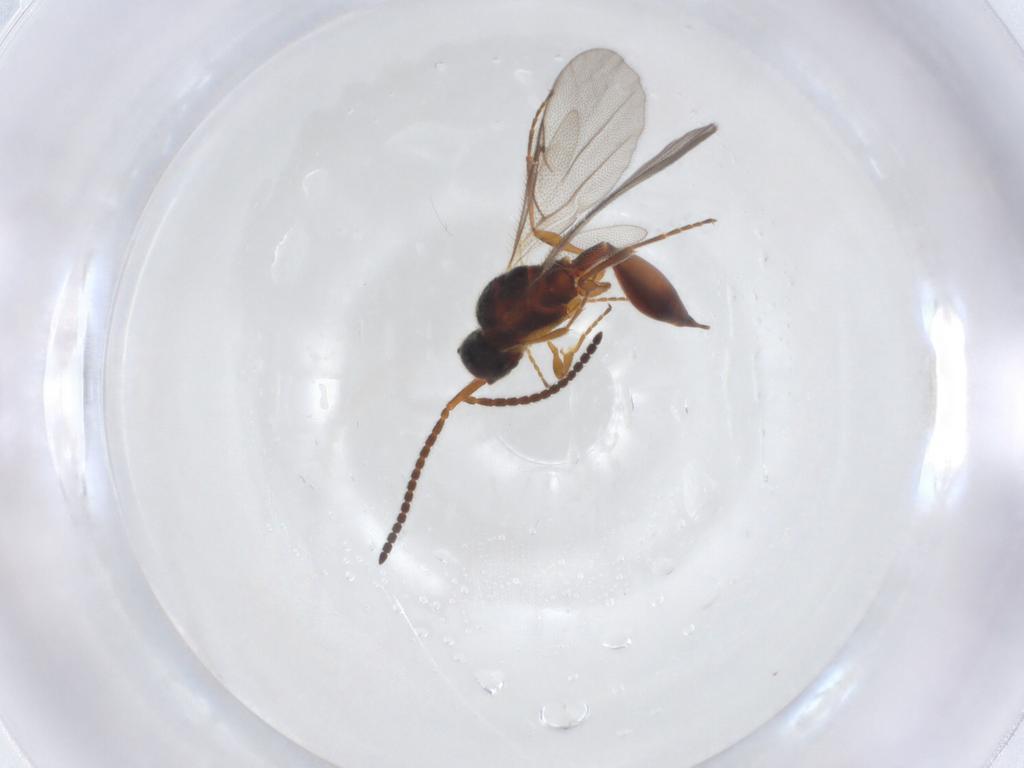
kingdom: Animalia
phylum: Arthropoda
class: Insecta
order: Hymenoptera
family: Diapriidae
